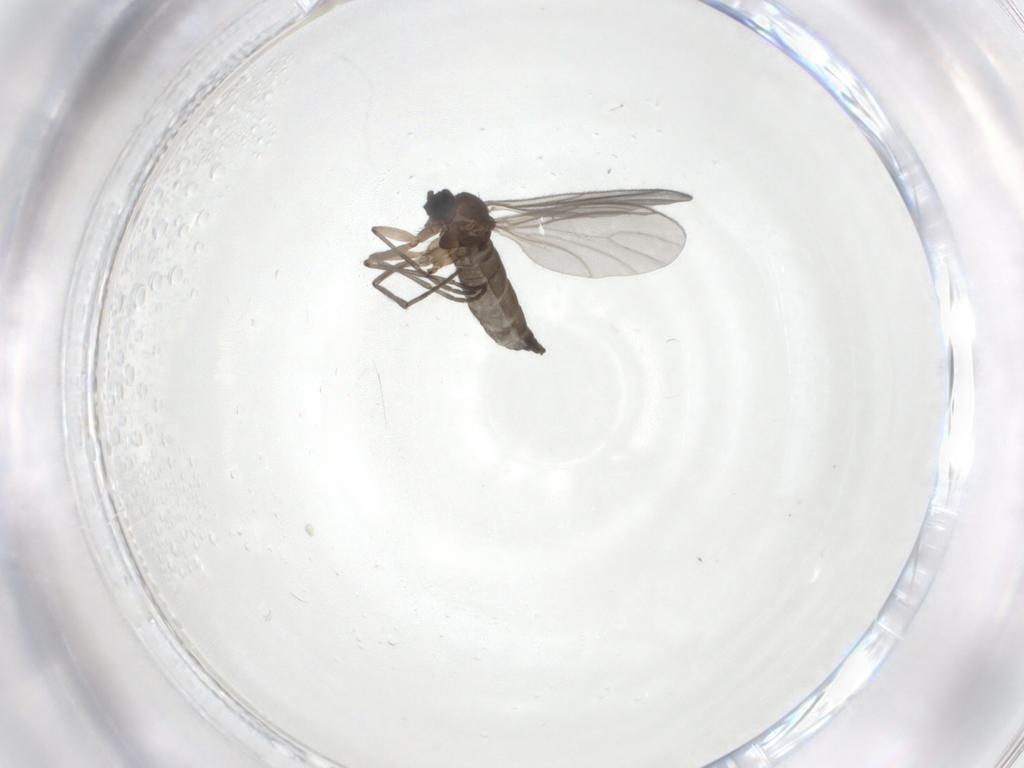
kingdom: Animalia
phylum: Arthropoda
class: Insecta
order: Diptera
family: Sciaridae
